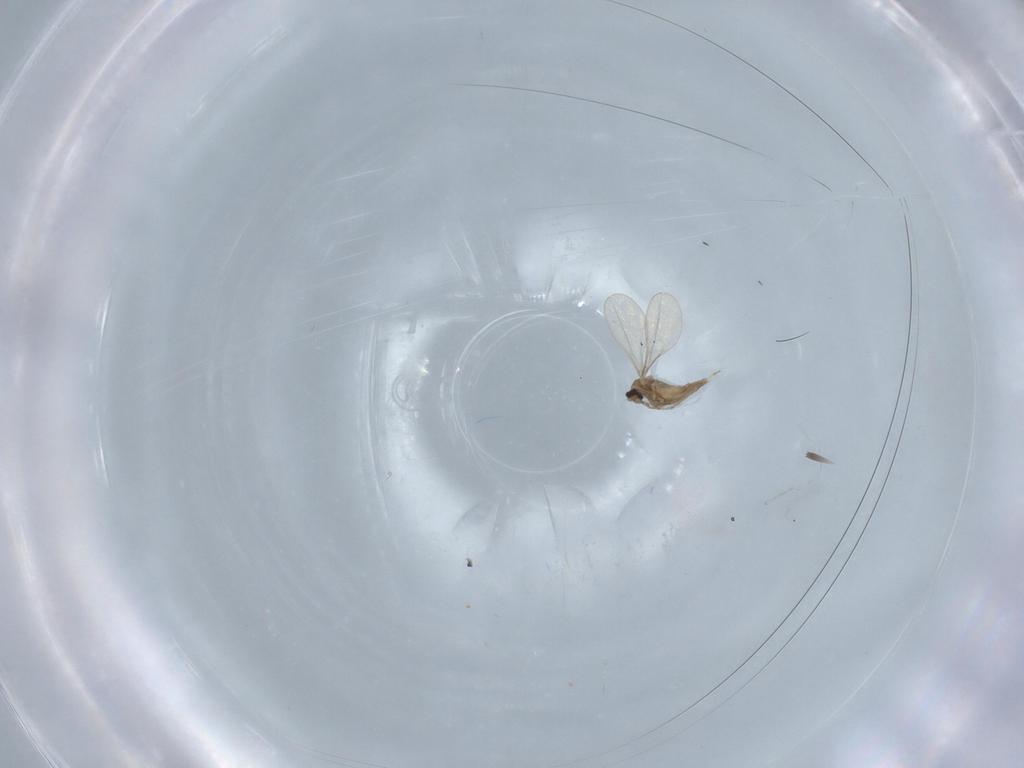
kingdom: Animalia
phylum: Arthropoda
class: Insecta
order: Diptera
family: Cecidomyiidae
